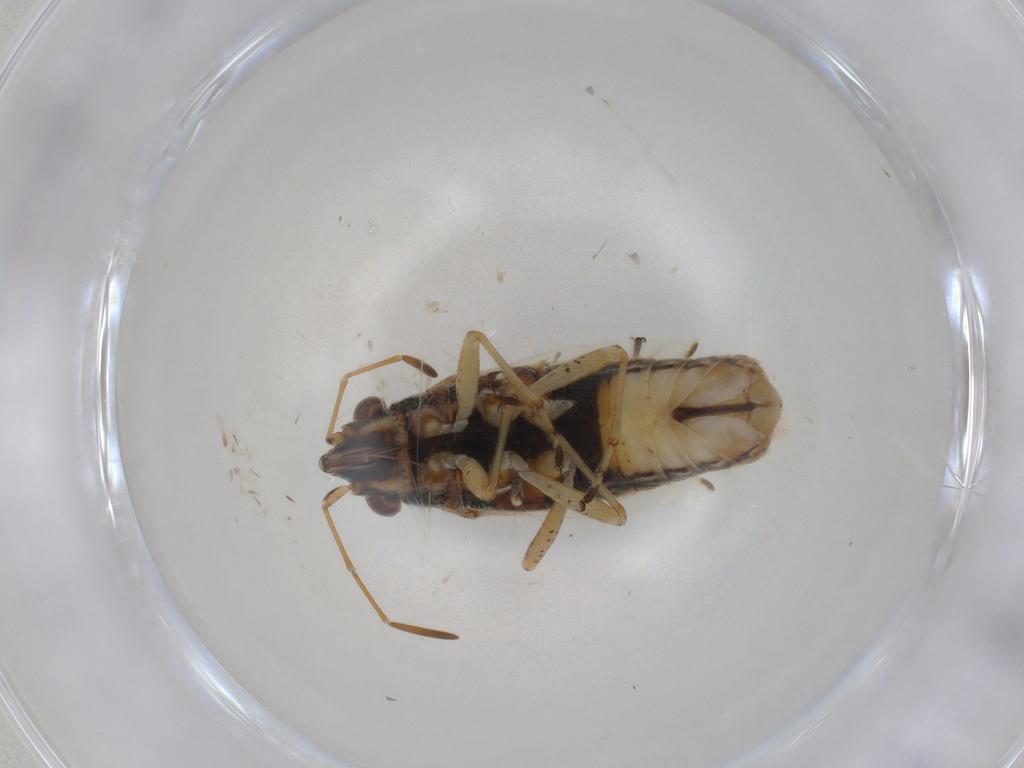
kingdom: Animalia
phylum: Arthropoda
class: Insecta
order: Hemiptera
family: Lygaeidae
